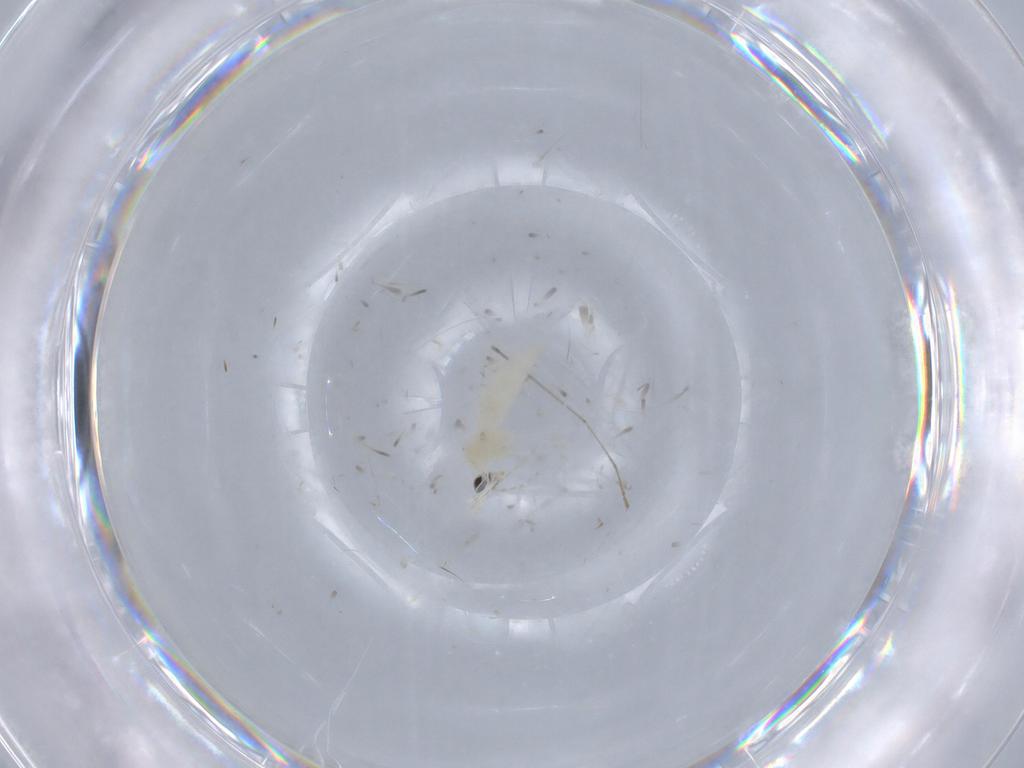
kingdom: Animalia
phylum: Arthropoda
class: Insecta
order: Diptera
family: Cecidomyiidae
